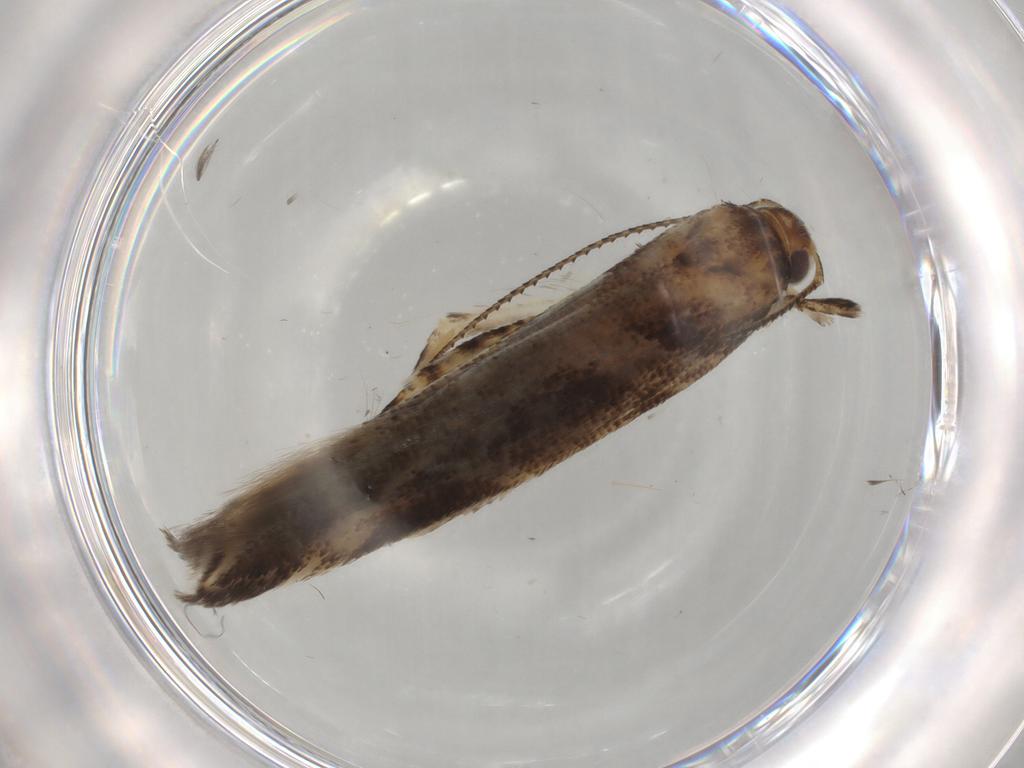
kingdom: Animalia
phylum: Arthropoda
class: Insecta
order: Lepidoptera
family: Gelechiidae
